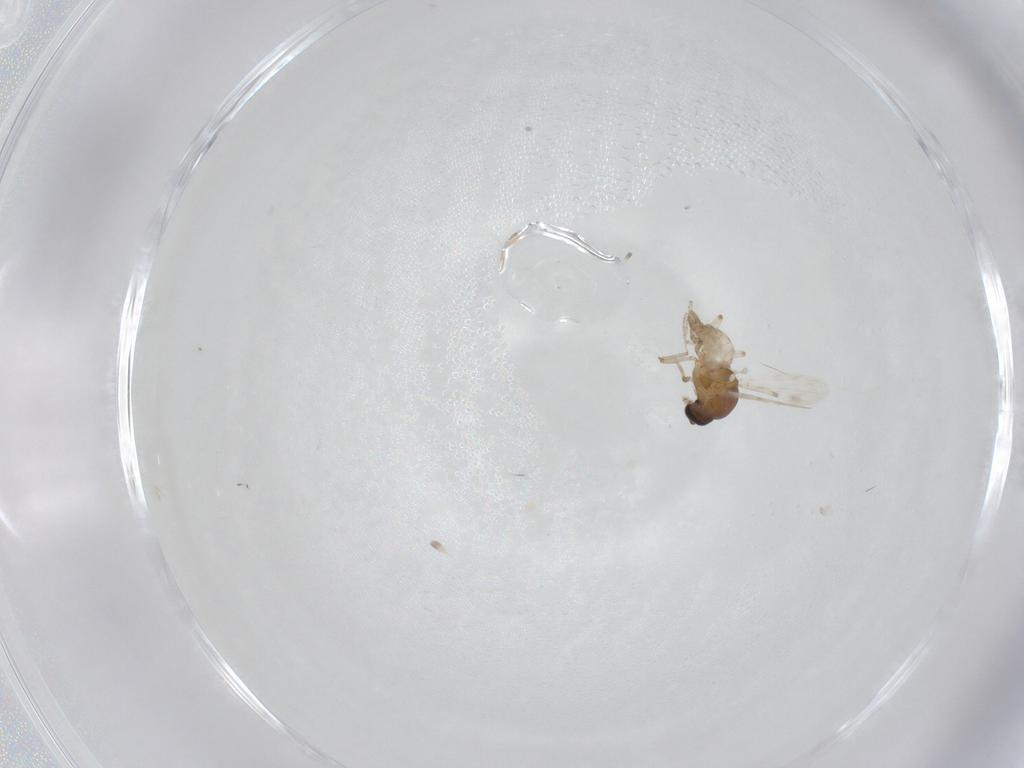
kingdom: Animalia
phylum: Arthropoda
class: Insecta
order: Diptera
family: Ceratopogonidae
